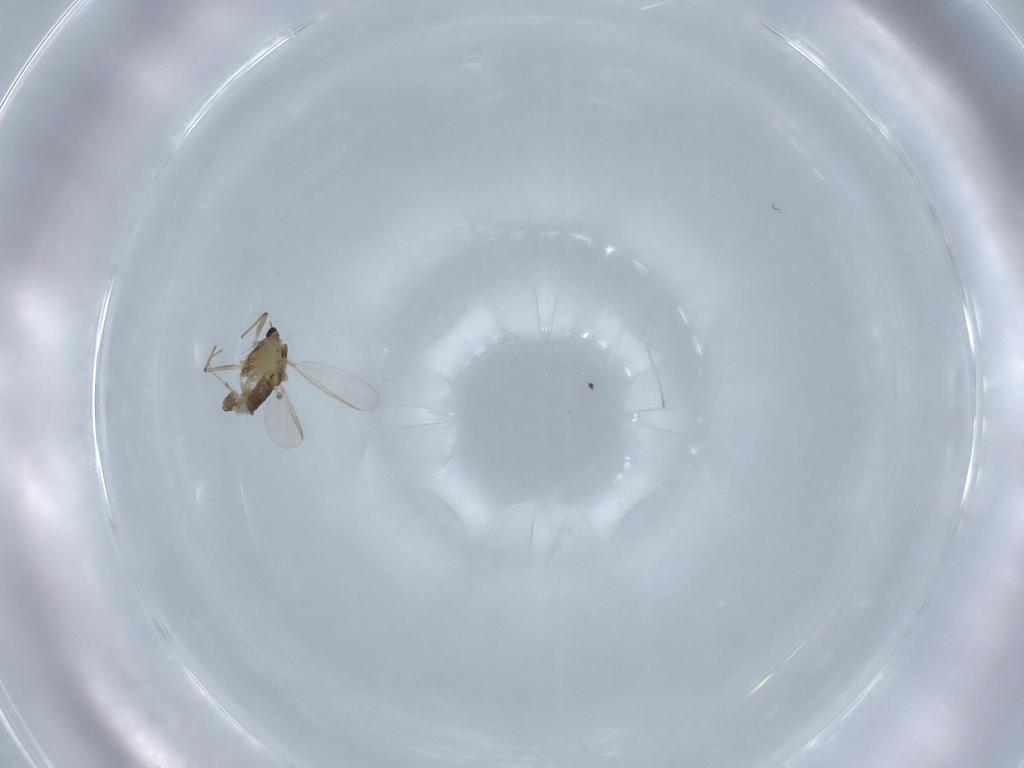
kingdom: Animalia
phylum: Arthropoda
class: Insecta
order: Diptera
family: Chironomidae
